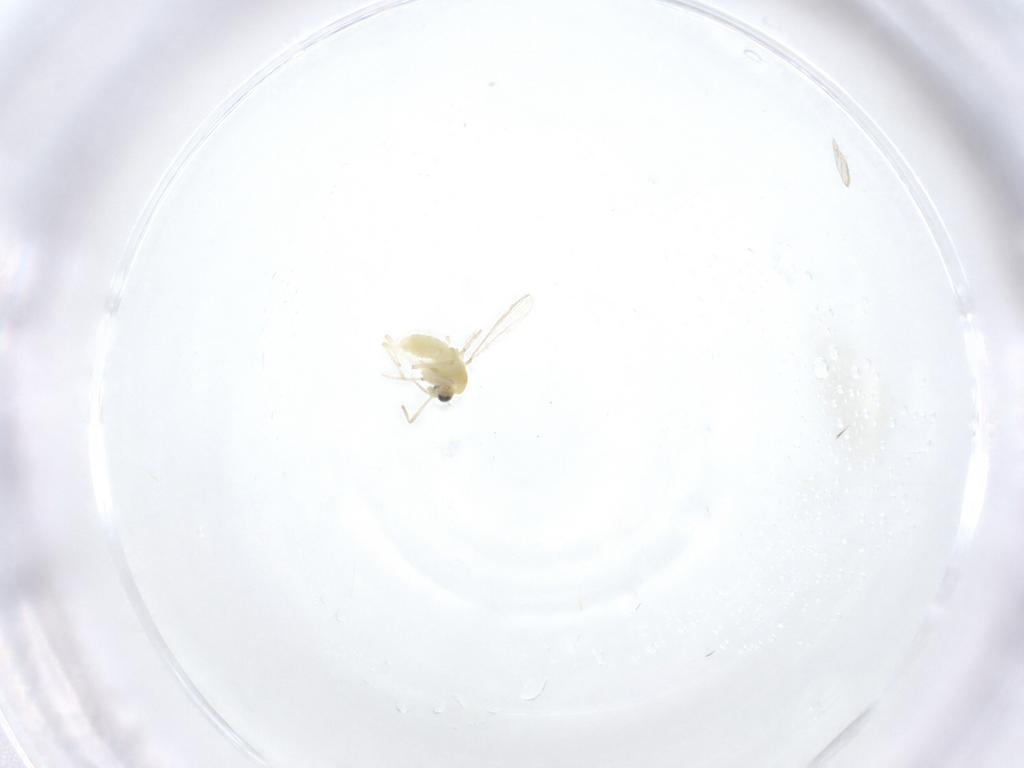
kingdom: Animalia
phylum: Arthropoda
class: Insecta
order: Diptera
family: Chironomidae
